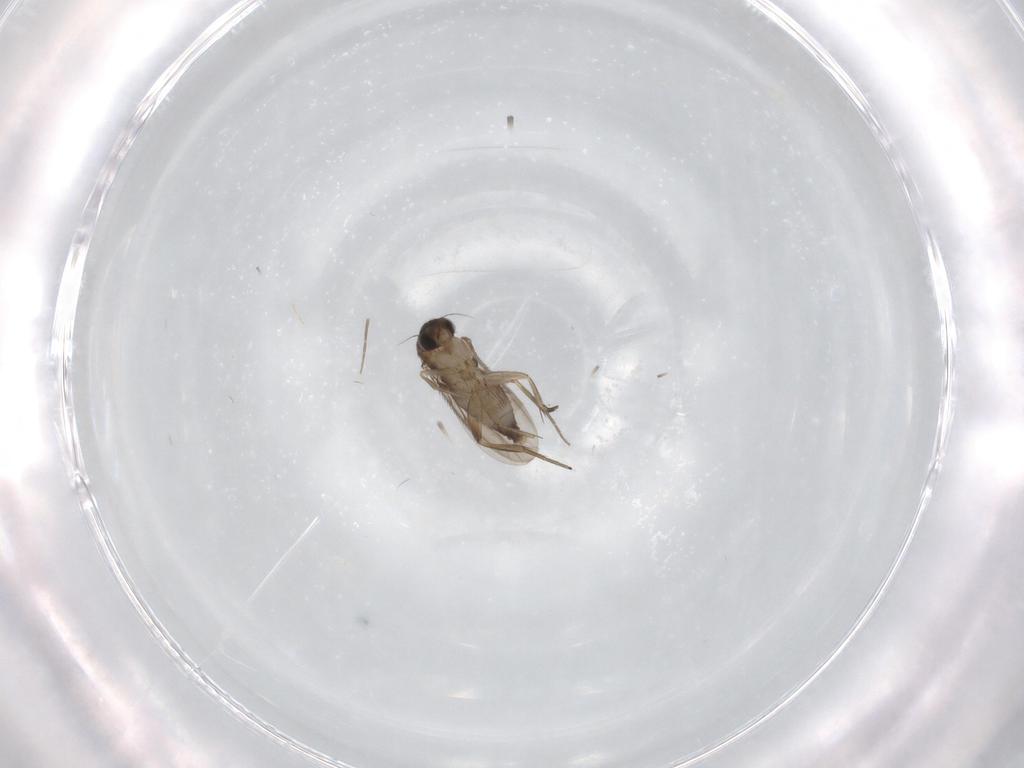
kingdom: Animalia
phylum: Arthropoda
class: Insecta
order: Diptera
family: Phoridae
